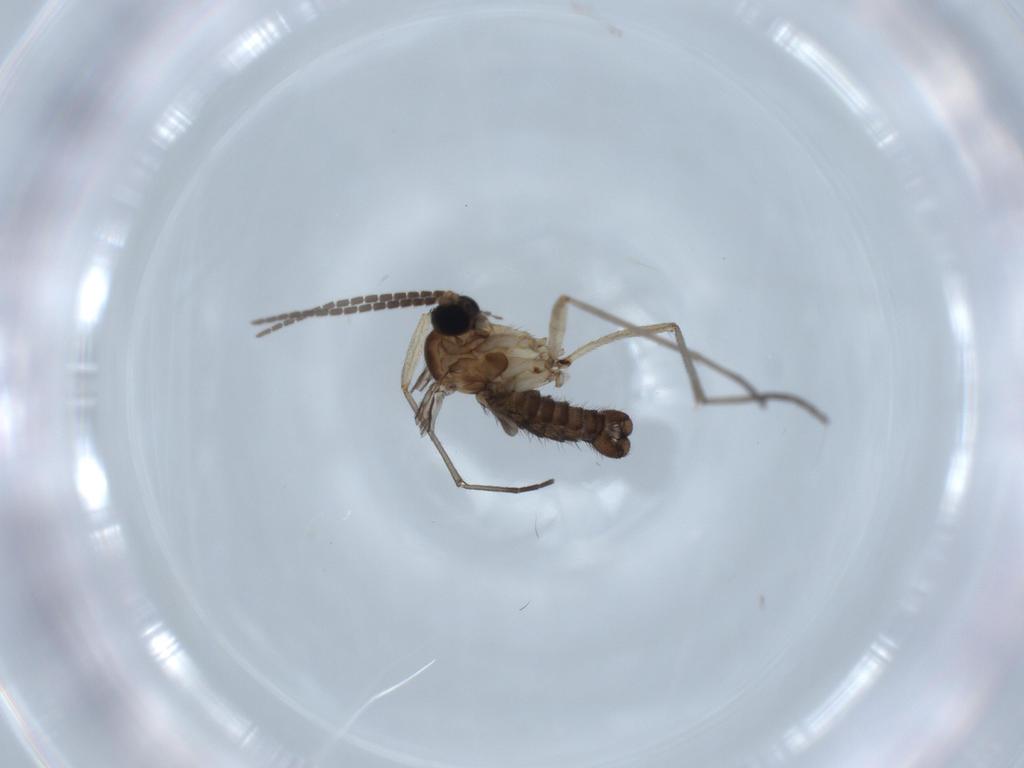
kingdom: Animalia
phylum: Arthropoda
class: Insecta
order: Diptera
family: Sciaridae
